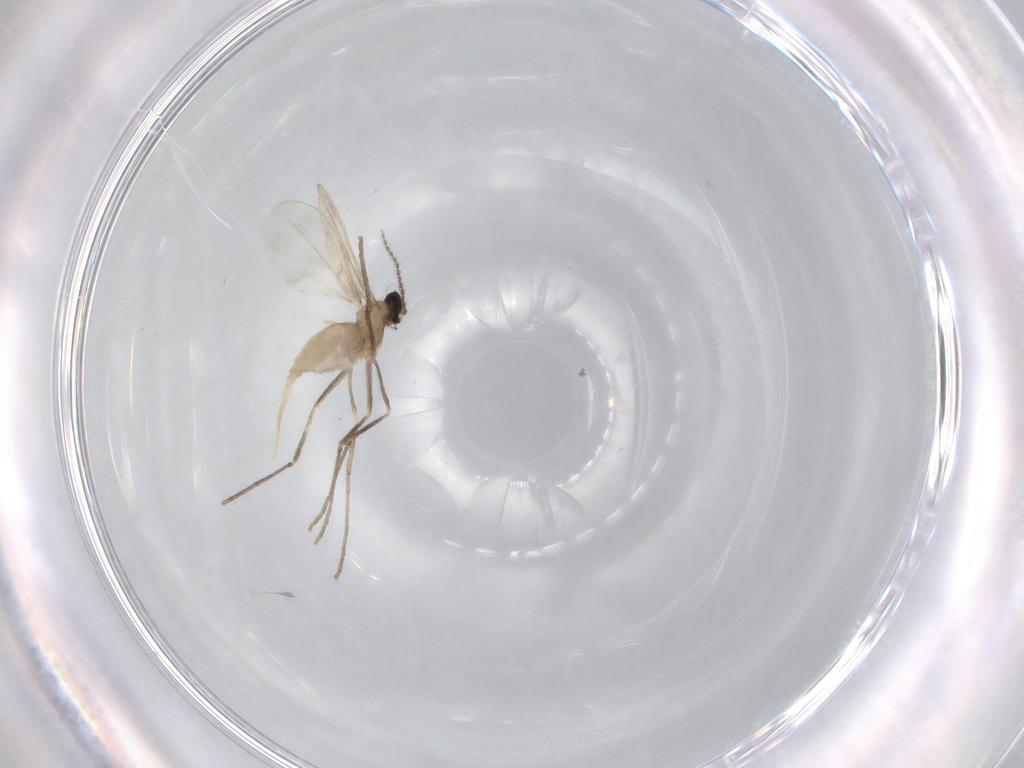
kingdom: Animalia
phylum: Arthropoda
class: Insecta
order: Diptera
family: Cecidomyiidae
